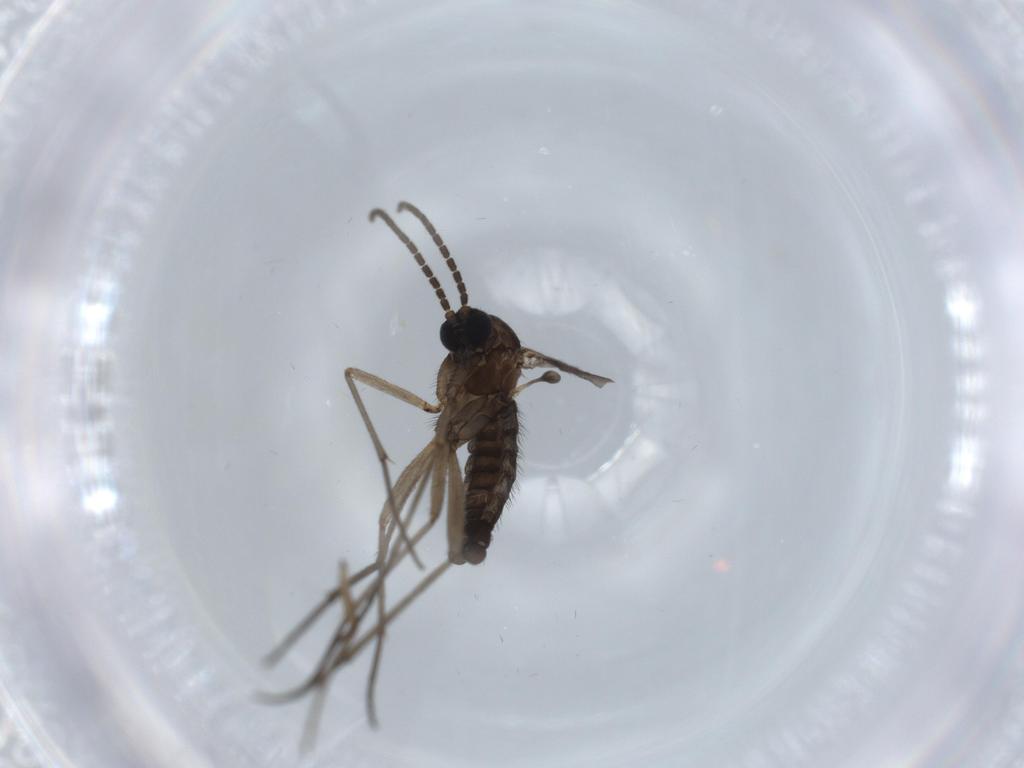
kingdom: Animalia
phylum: Arthropoda
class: Insecta
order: Diptera
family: Sciaridae
